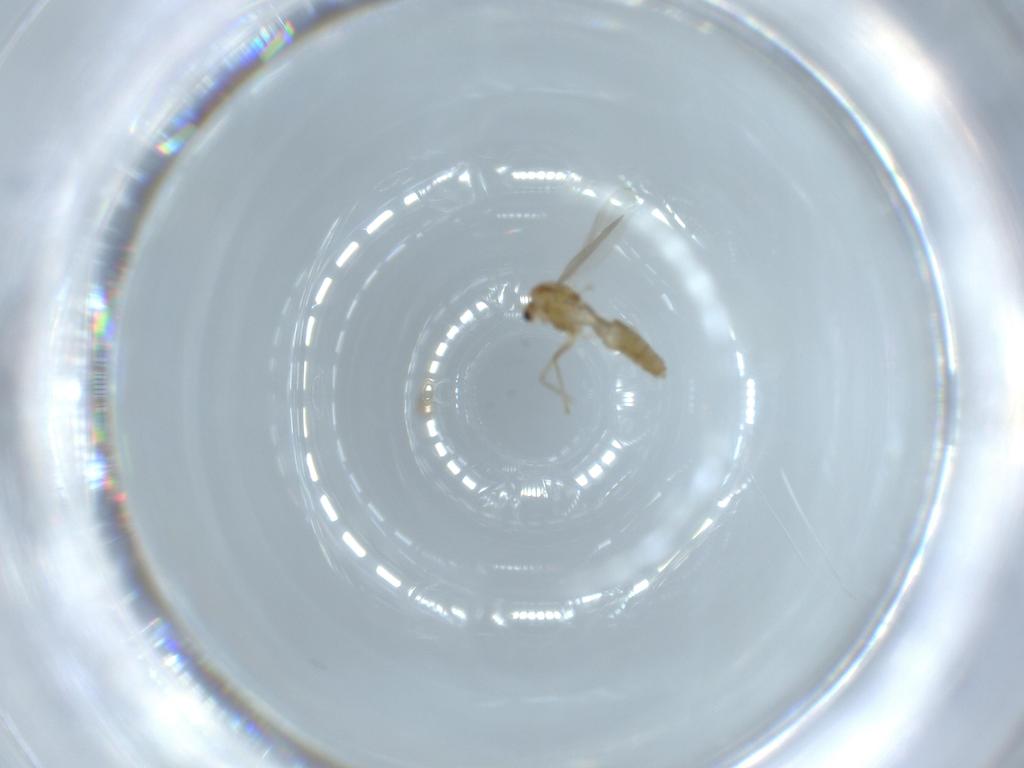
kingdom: Animalia
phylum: Arthropoda
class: Insecta
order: Diptera
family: Chironomidae
